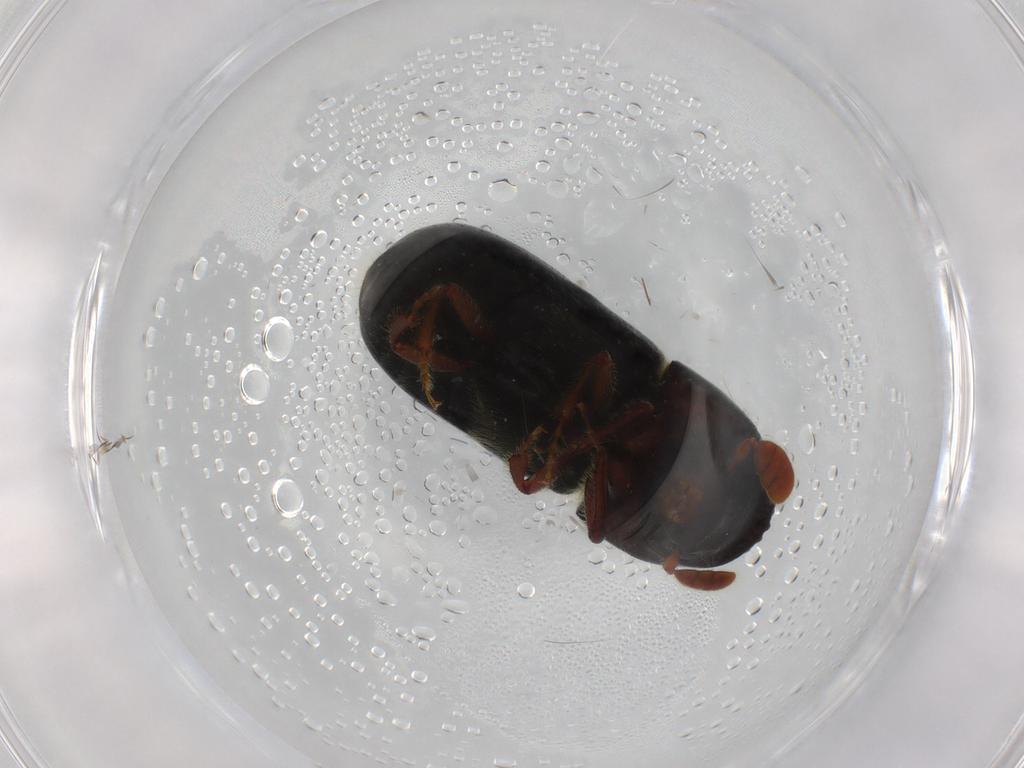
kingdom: Animalia
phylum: Arthropoda
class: Insecta
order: Coleoptera
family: Curculionidae
